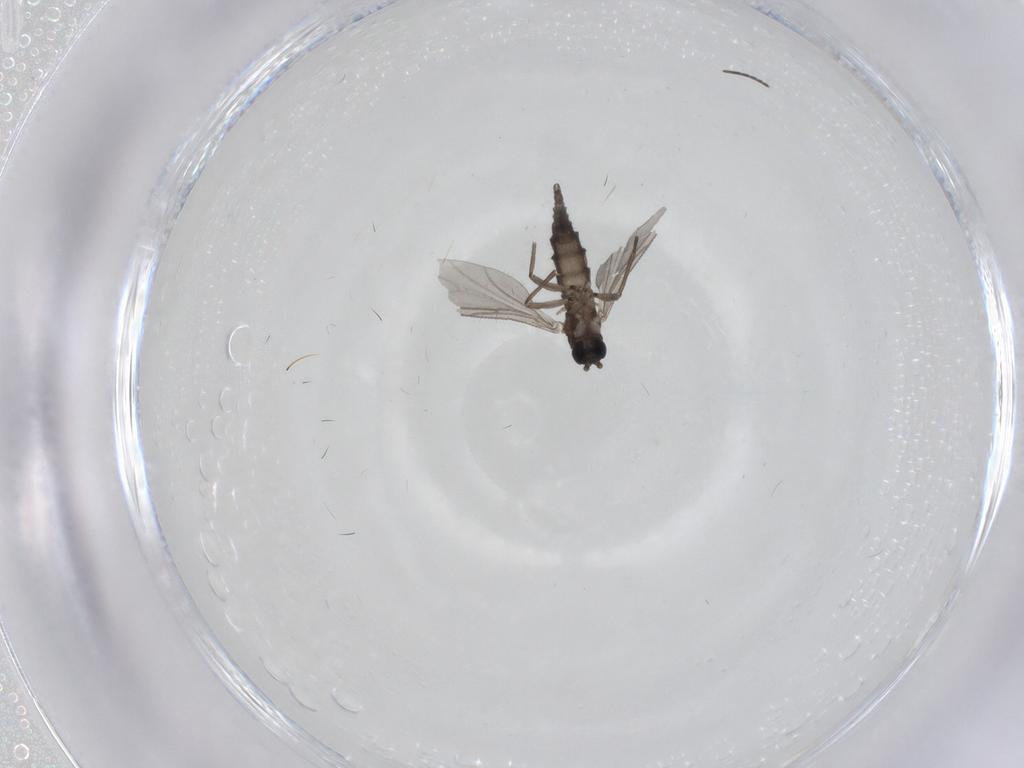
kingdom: Animalia
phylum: Arthropoda
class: Insecta
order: Diptera
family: Sciaridae
